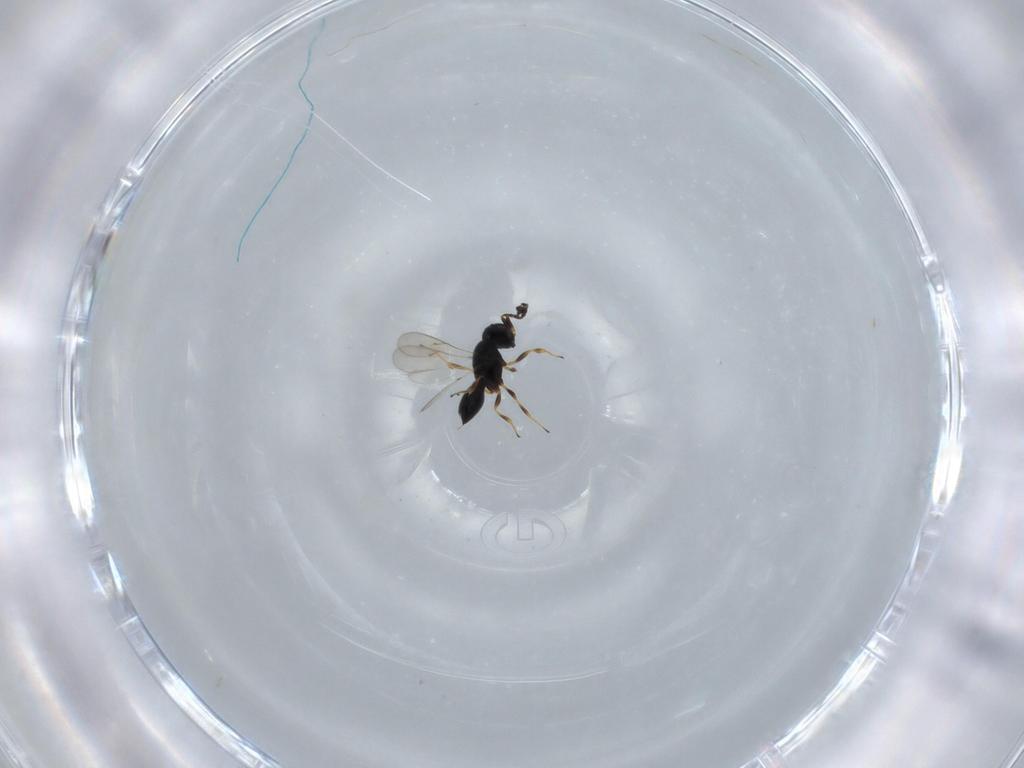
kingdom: Animalia
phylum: Arthropoda
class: Insecta
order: Hymenoptera
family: Scelionidae
